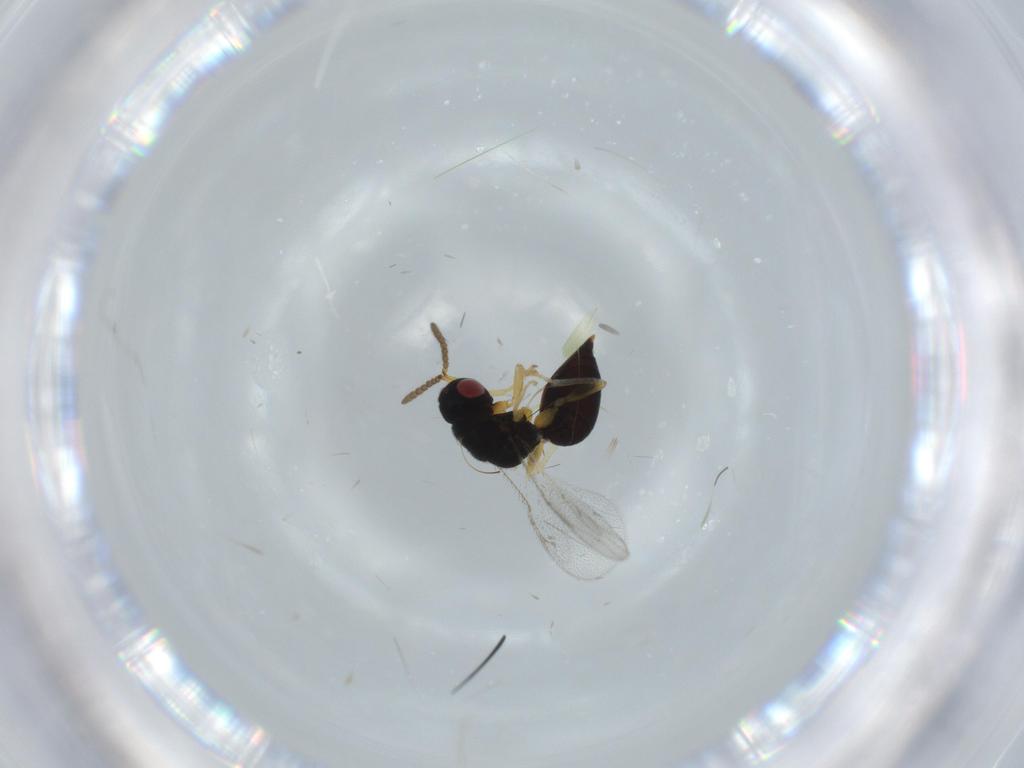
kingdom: Animalia
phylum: Arthropoda
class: Insecta
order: Hymenoptera
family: Eurytomidae
